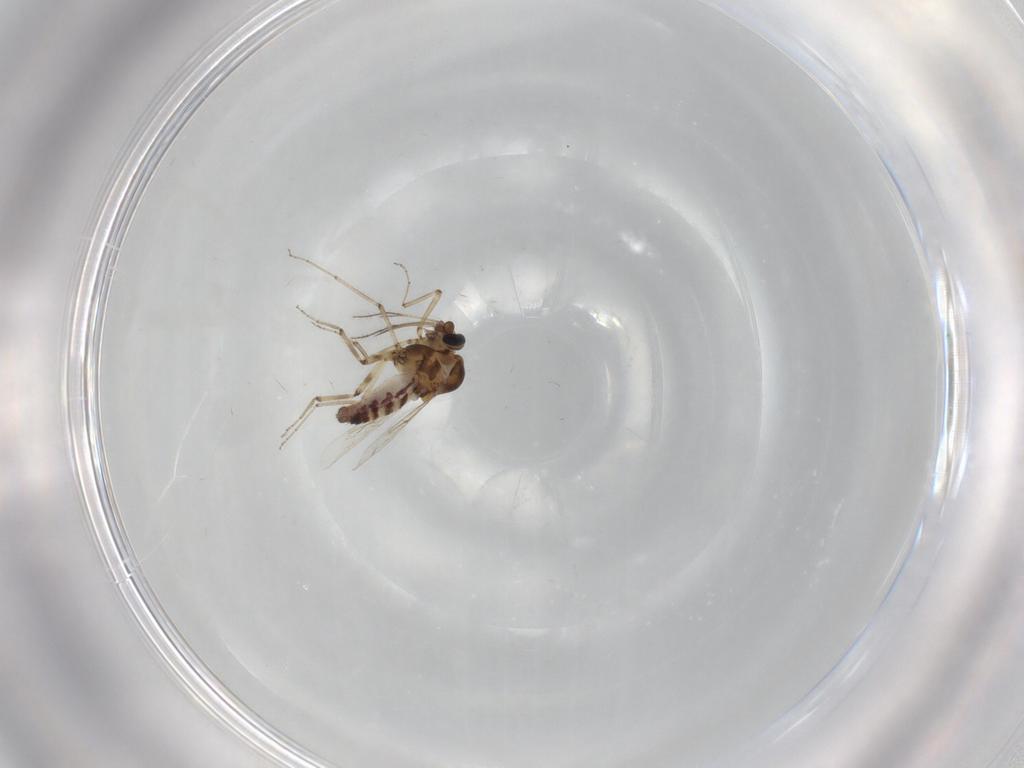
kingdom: Animalia
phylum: Arthropoda
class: Insecta
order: Diptera
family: Ceratopogonidae
